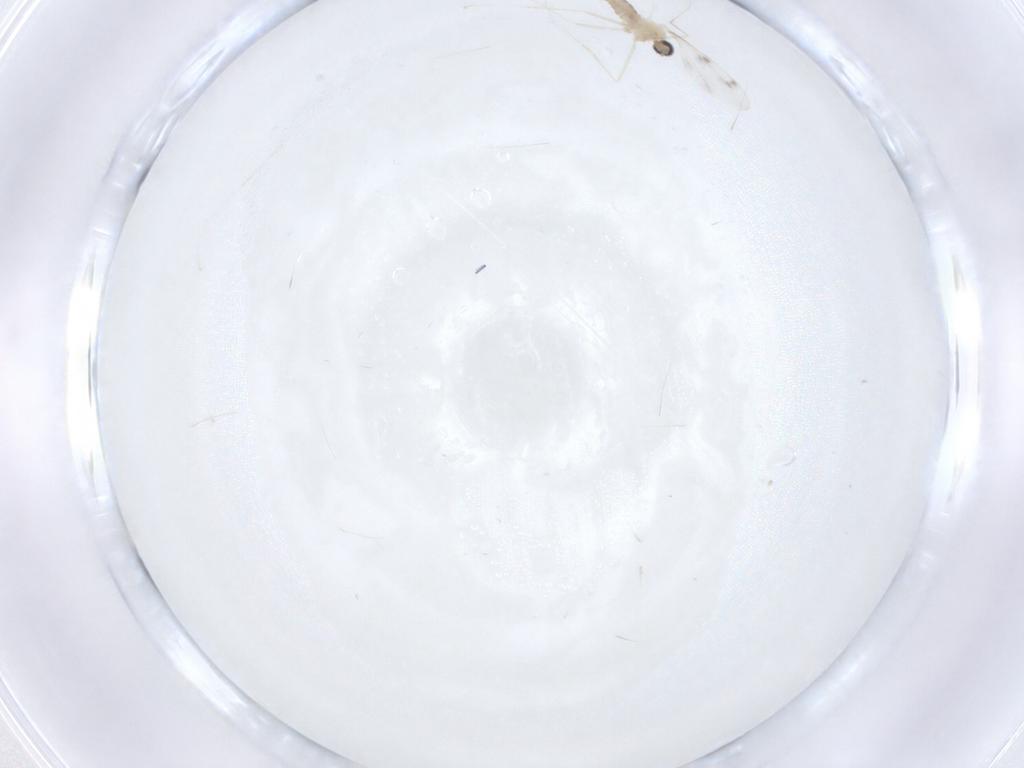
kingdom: Animalia
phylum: Arthropoda
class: Insecta
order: Diptera
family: Cecidomyiidae
